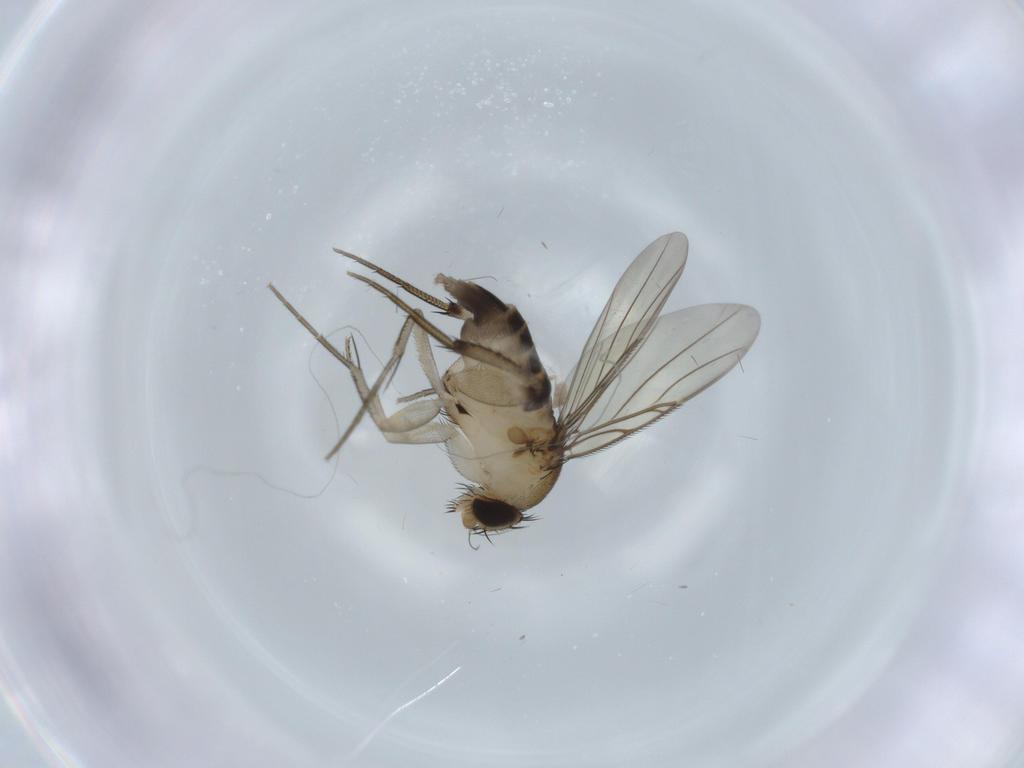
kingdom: Animalia
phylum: Arthropoda
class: Insecta
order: Diptera
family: Phoridae
